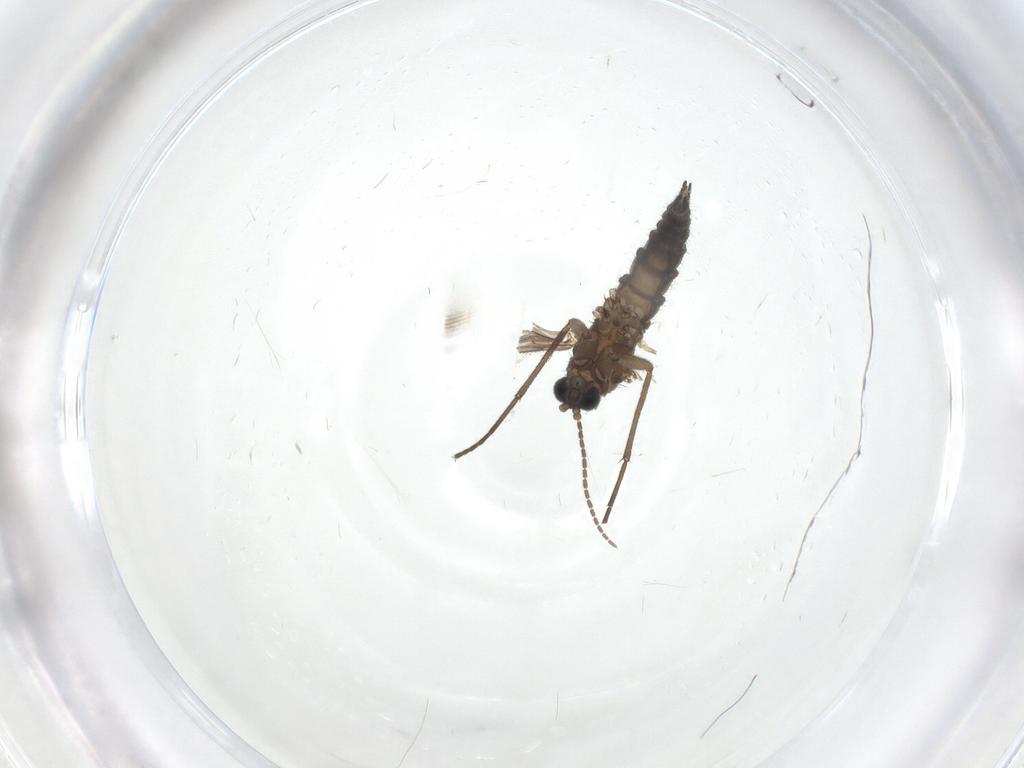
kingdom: Animalia
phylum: Arthropoda
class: Insecta
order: Diptera
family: Sciaridae
